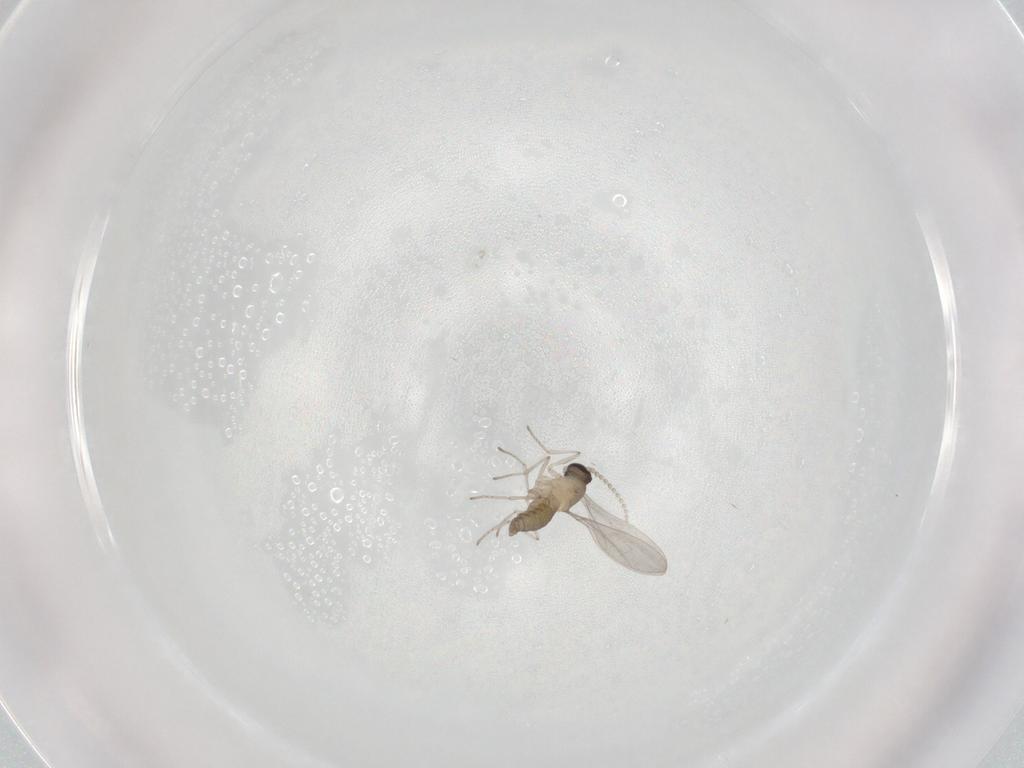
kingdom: Animalia
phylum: Arthropoda
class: Insecta
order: Diptera
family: Cecidomyiidae
